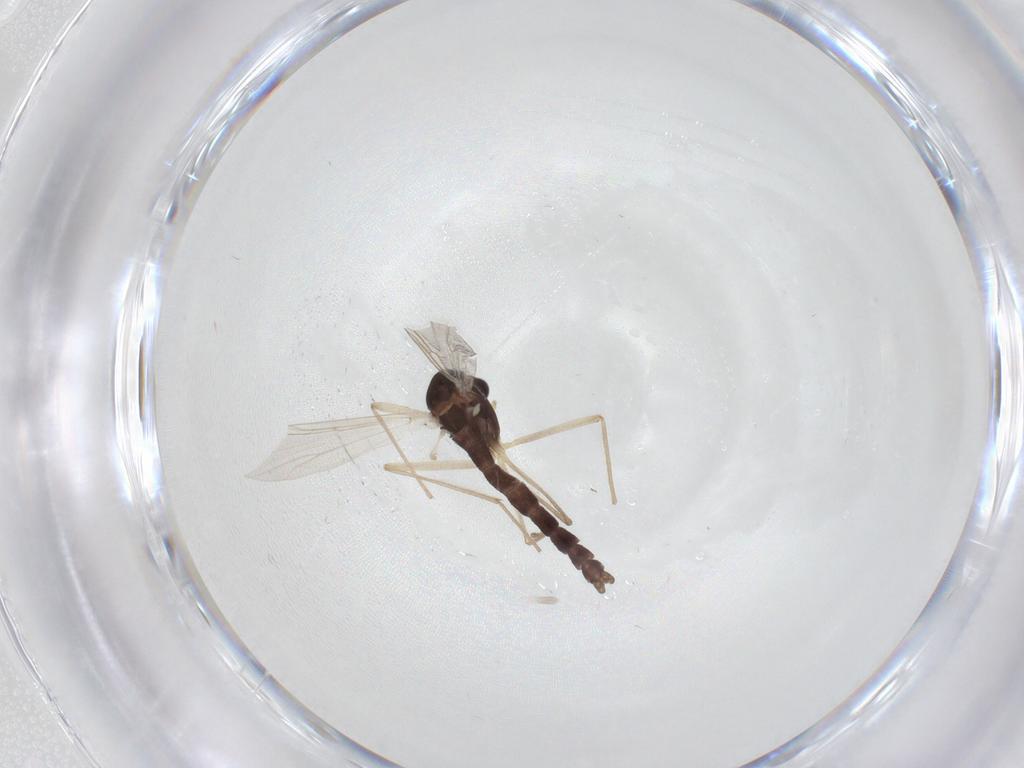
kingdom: Animalia
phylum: Arthropoda
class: Insecta
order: Diptera
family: Chironomidae
